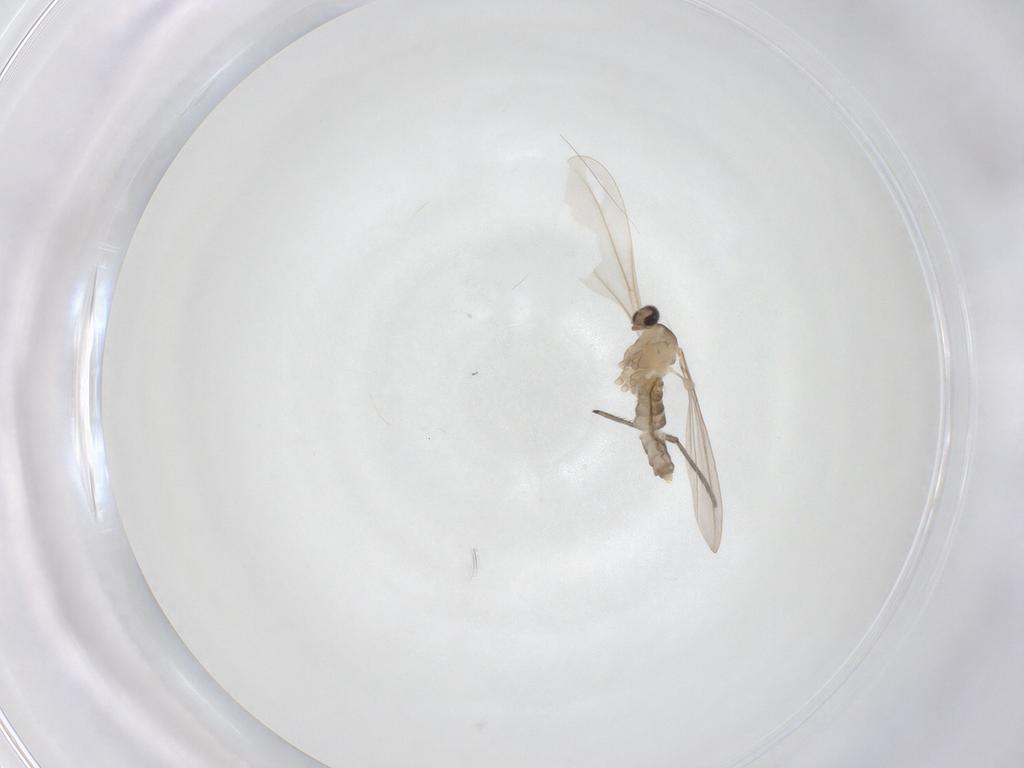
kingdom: Animalia
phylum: Arthropoda
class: Insecta
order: Diptera
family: Cecidomyiidae
